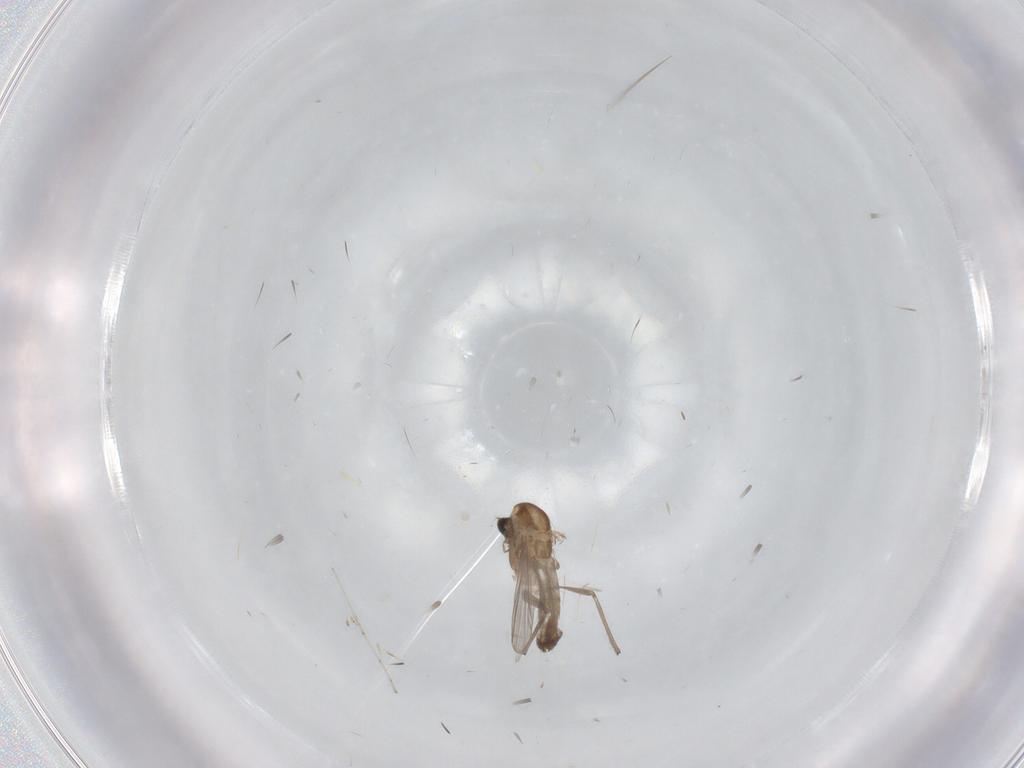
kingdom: Animalia
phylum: Arthropoda
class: Insecta
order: Diptera
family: Chironomidae
